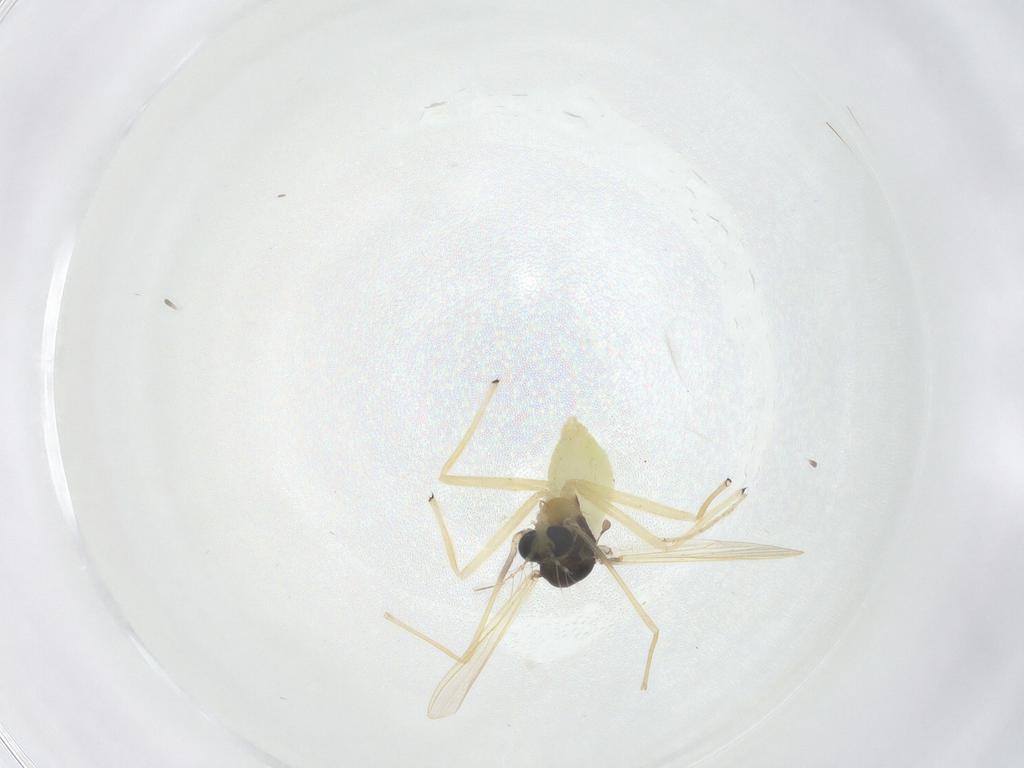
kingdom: Animalia
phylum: Arthropoda
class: Insecta
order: Diptera
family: Chironomidae
